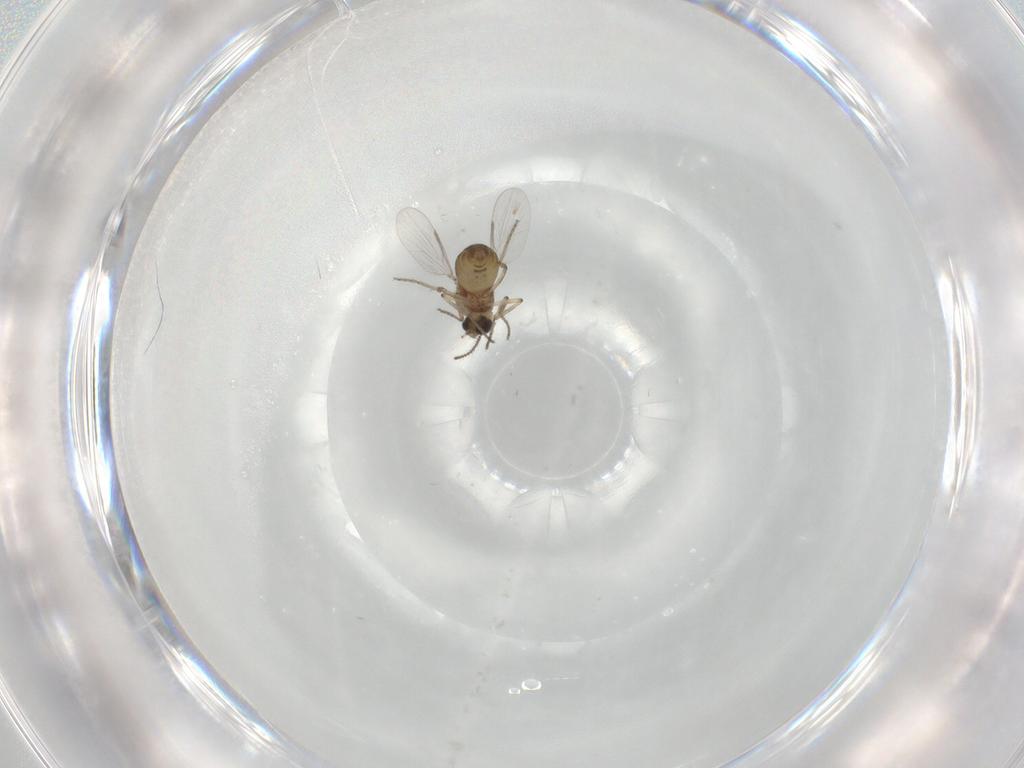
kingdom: Animalia
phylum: Arthropoda
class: Insecta
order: Diptera
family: Ceratopogonidae
